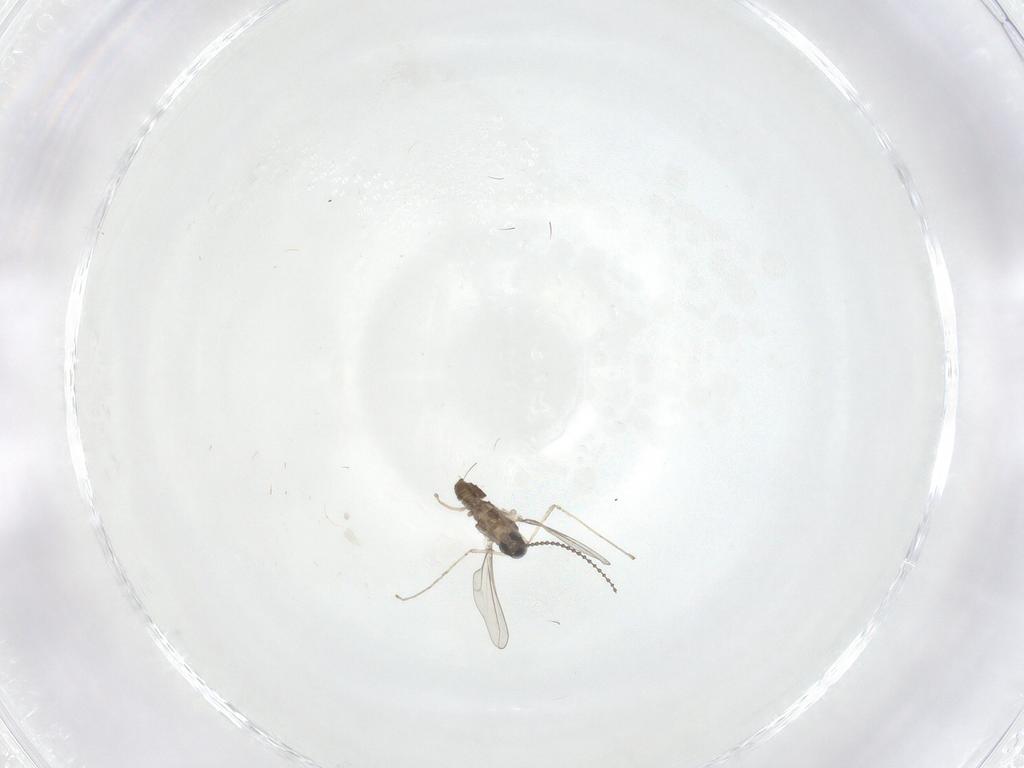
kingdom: Animalia
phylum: Arthropoda
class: Insecta
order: Diptera
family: Cecidomyiidae
